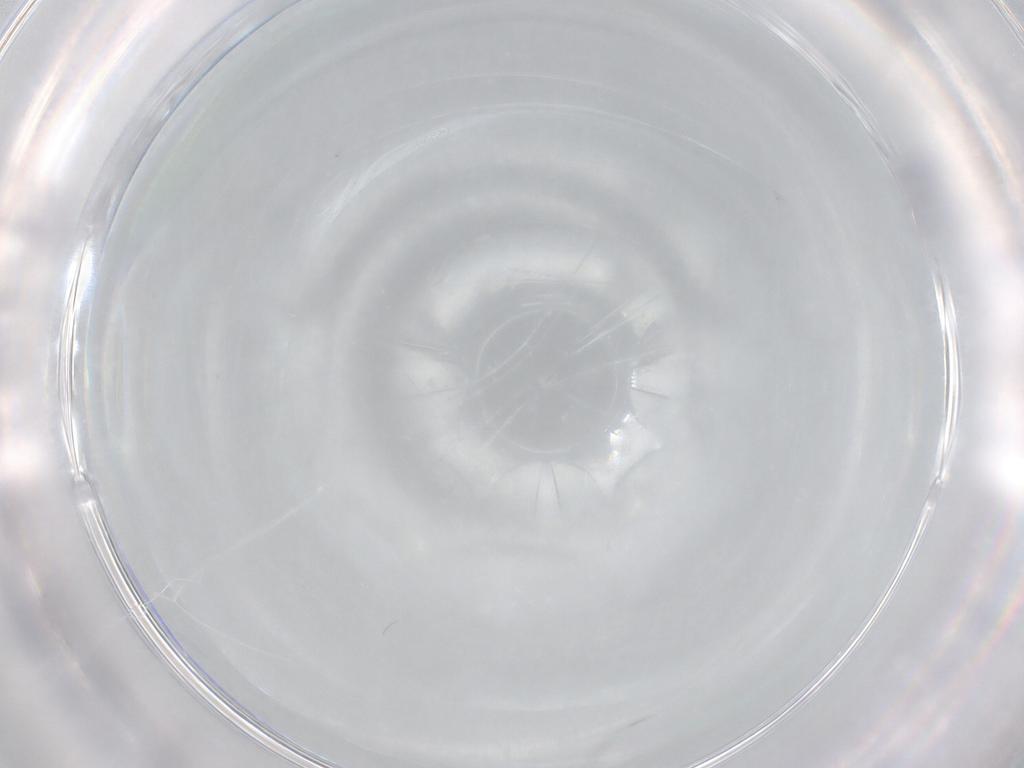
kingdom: Animalia
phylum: Arthropoda
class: Collembola
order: Entomobryomorpha
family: Entomobryidae
